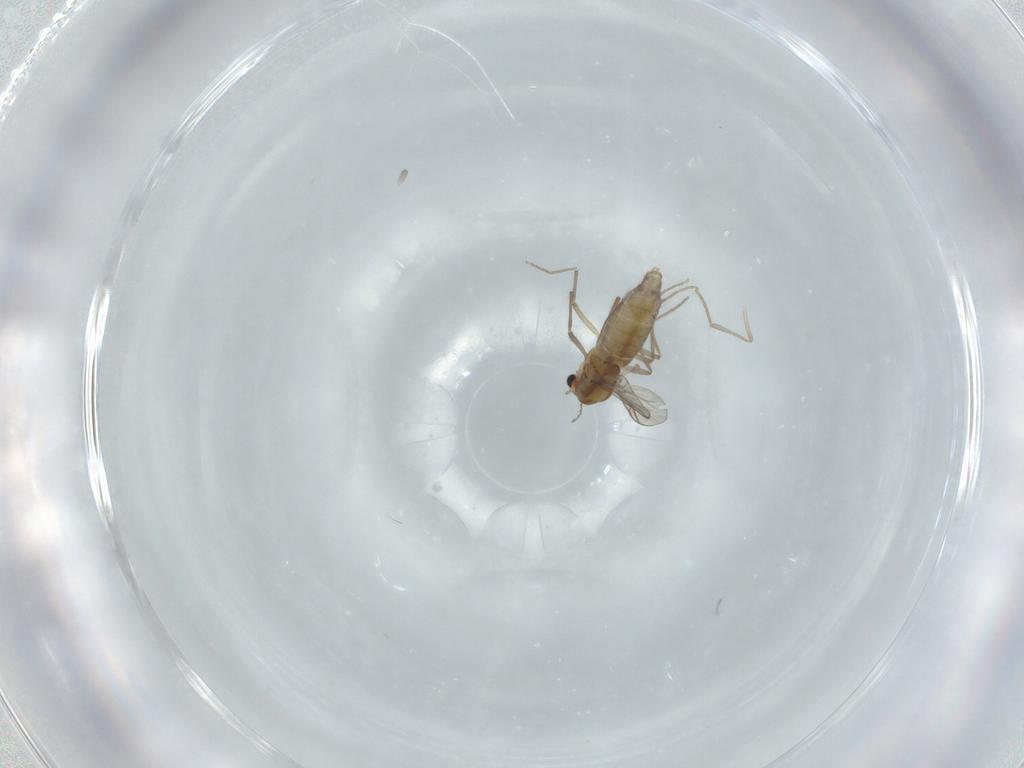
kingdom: Animalia
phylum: Arthropoda
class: Insecta
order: Diptera
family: Chironomidae
